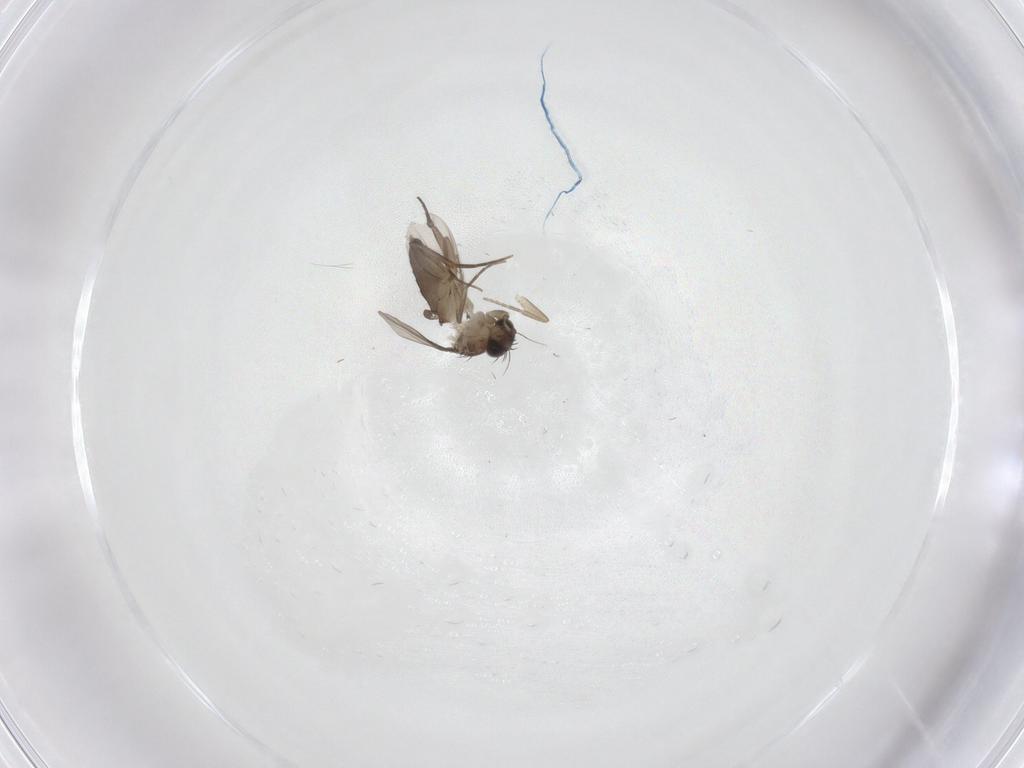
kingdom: Animalia
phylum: Arthropoda
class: Insecta
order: Diptera
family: Phoridae
